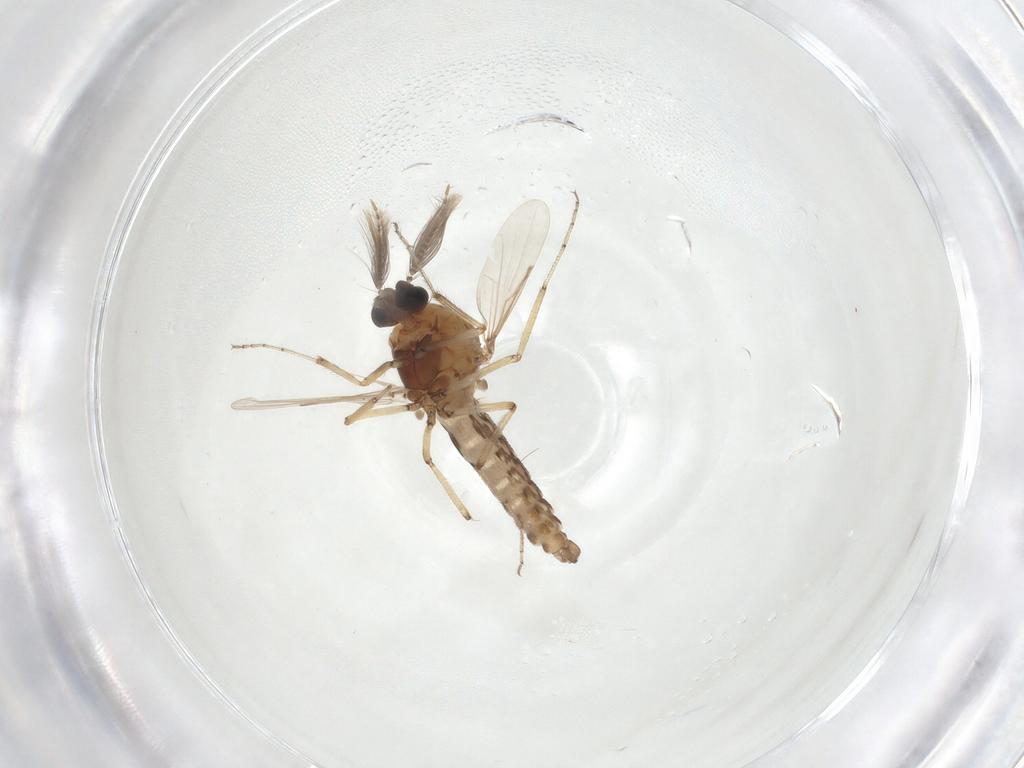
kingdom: Animalia
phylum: Arthropoda
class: Insecta
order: Diptera
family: Ceratopogonidae
